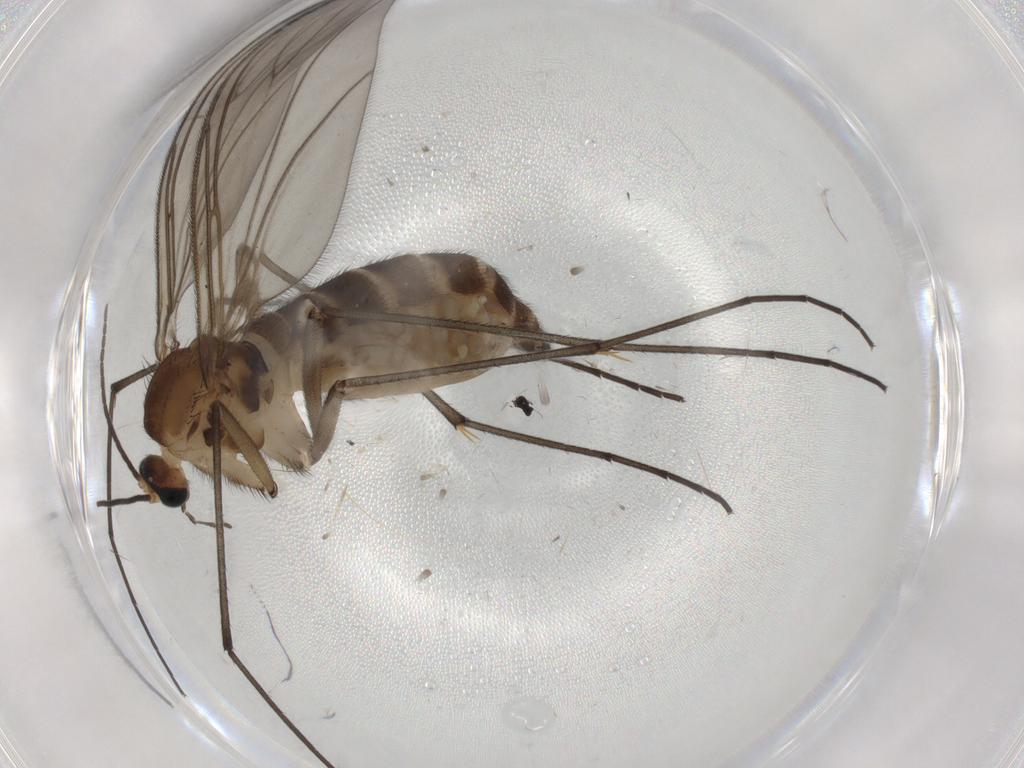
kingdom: Animalia
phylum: Arthropoda
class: Insecta
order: Diptera
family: Sciaridae
